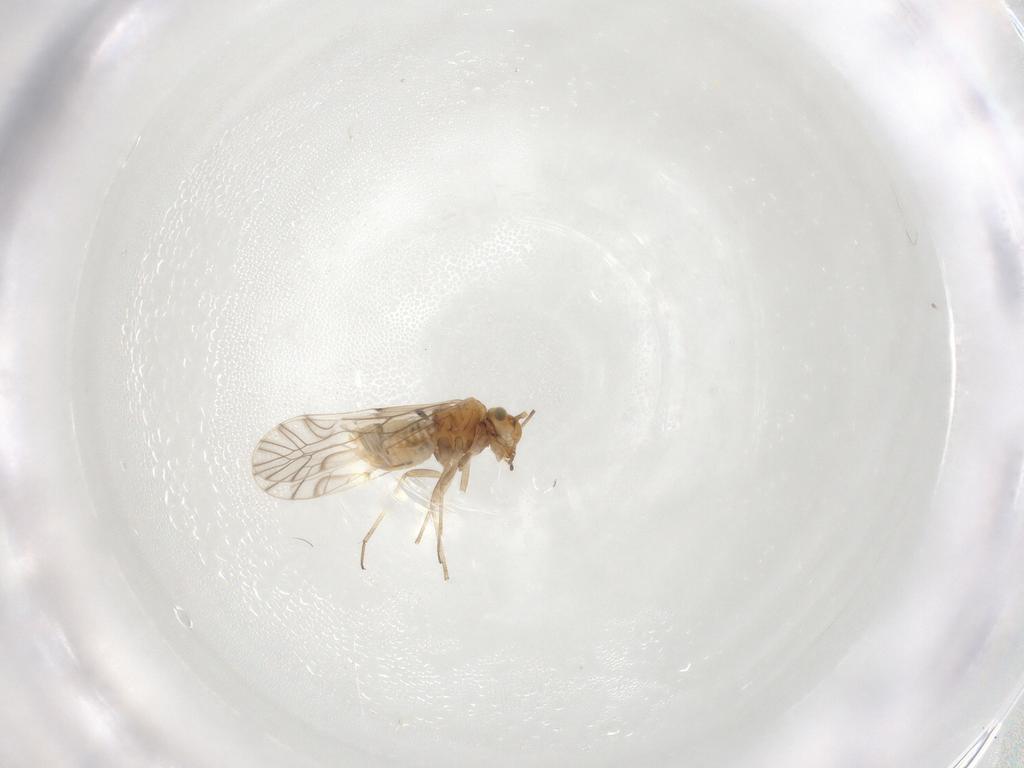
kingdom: Animalia
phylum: Arthropoda
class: Insecta
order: Psocodea
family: Lachesillidae
